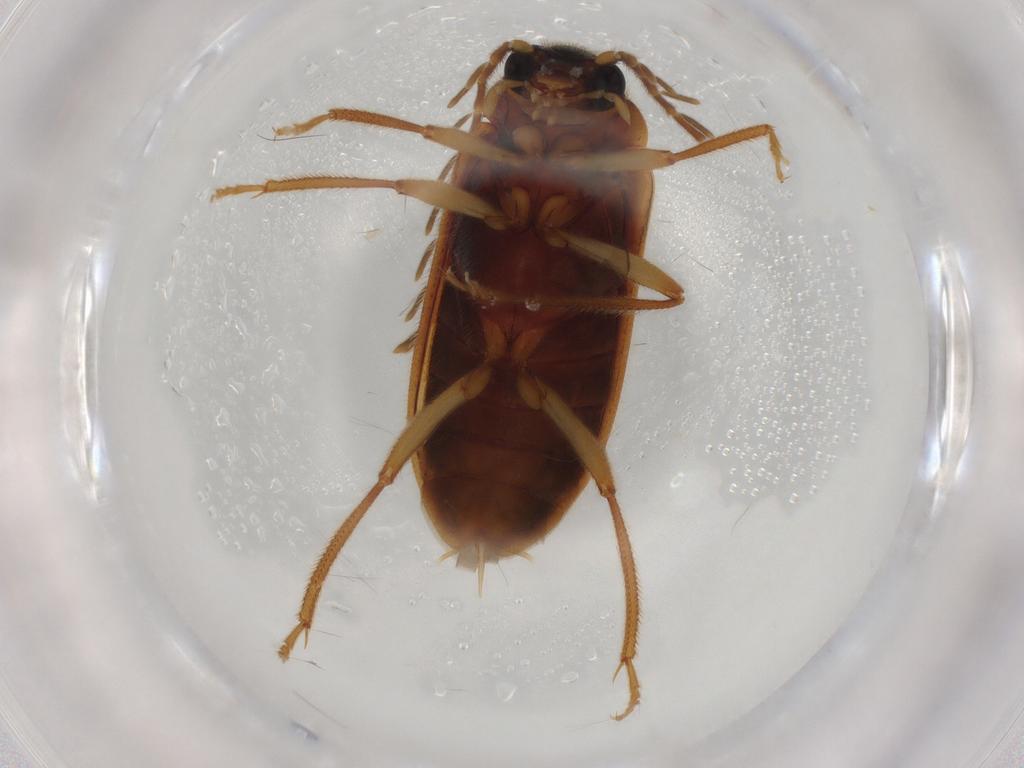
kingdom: Animalia
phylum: Arthropoda
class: Insecta
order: Coleoptera
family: Ptilodactylidae
